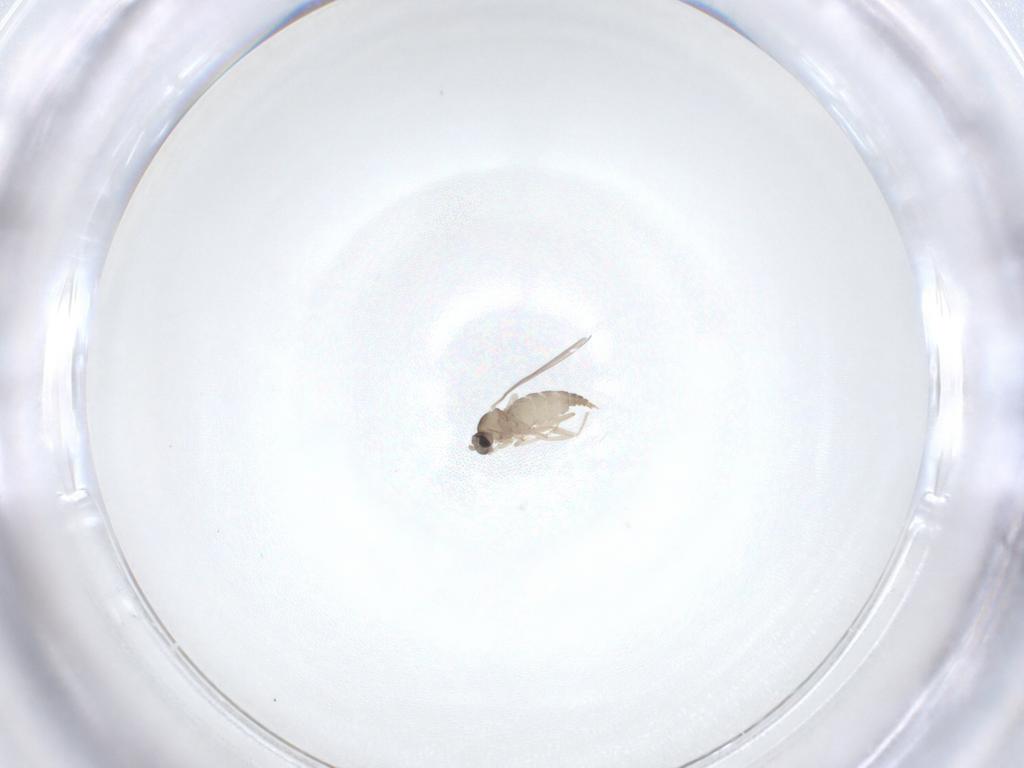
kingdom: Animalia
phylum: Arthropoda
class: Insecta
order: Diptera
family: Cecidomyiidae
